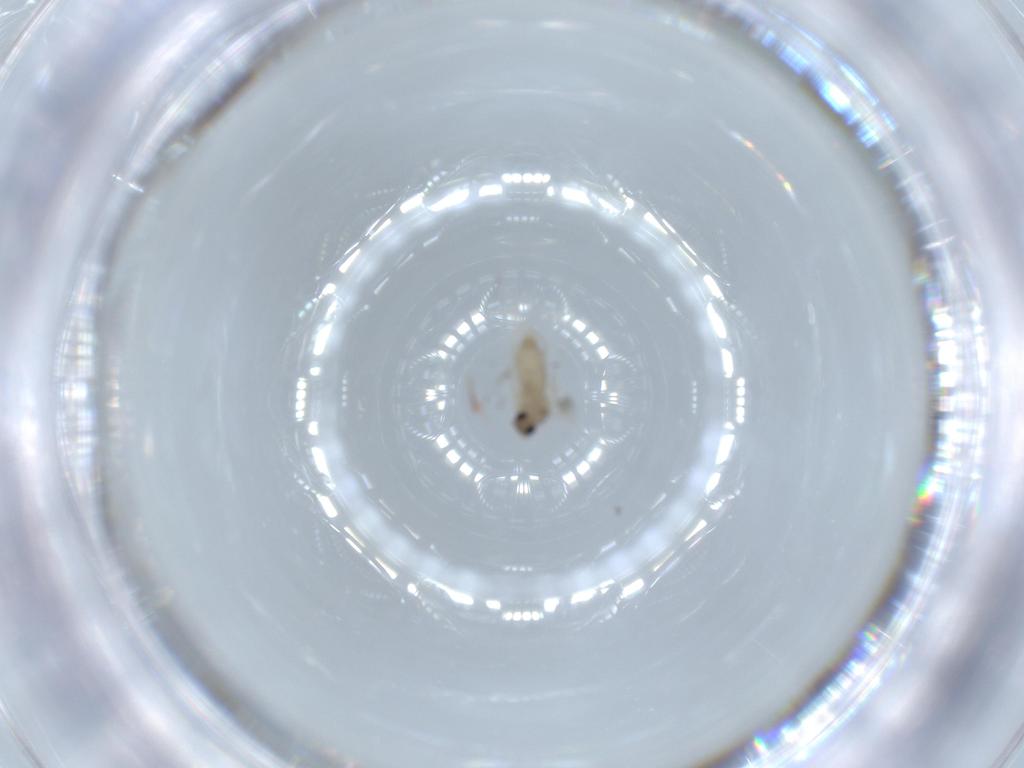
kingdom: Animalia
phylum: Arthropoda
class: Insecta
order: Diptera
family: Cecidomyiidae
